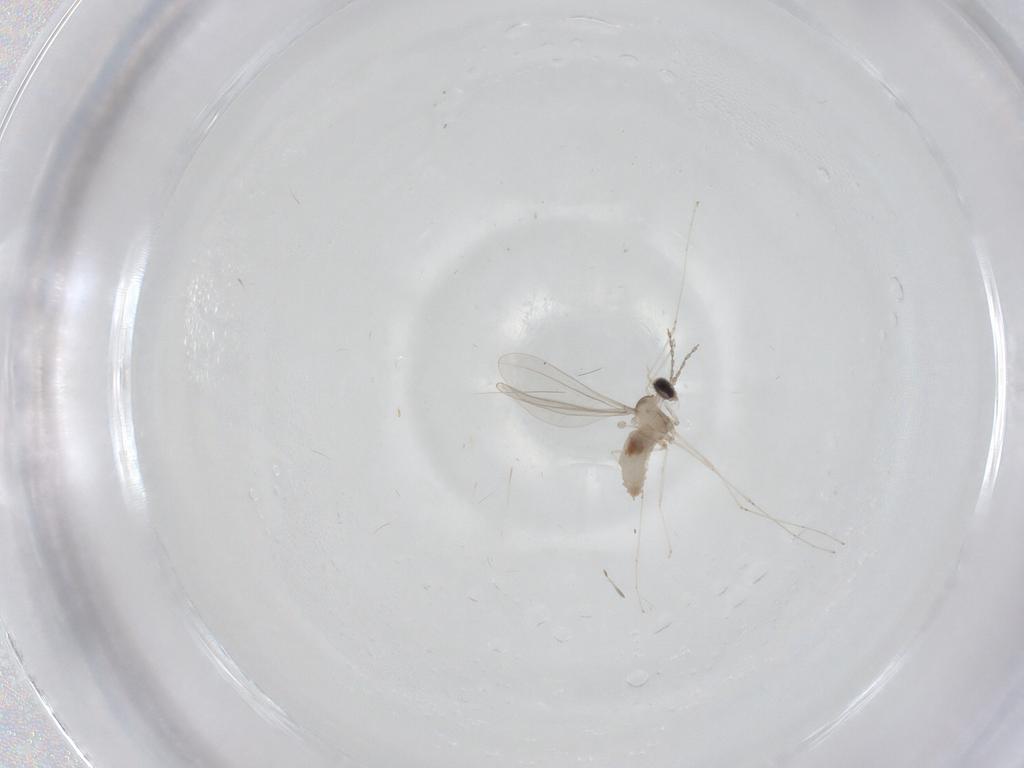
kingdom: Animalia
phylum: Arthropoda
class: Insecta
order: Diptera
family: Cecidomyiidae
